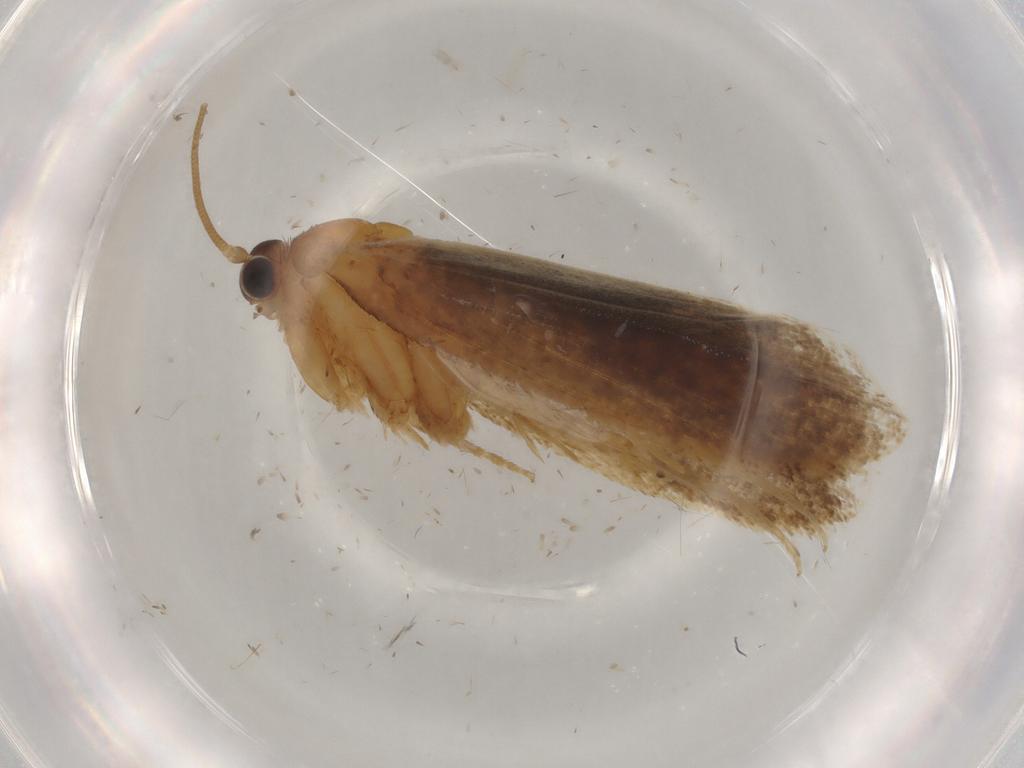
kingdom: Animalia
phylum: Arthropoda
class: Insecta
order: Lepidoptera
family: Nepticulidae
